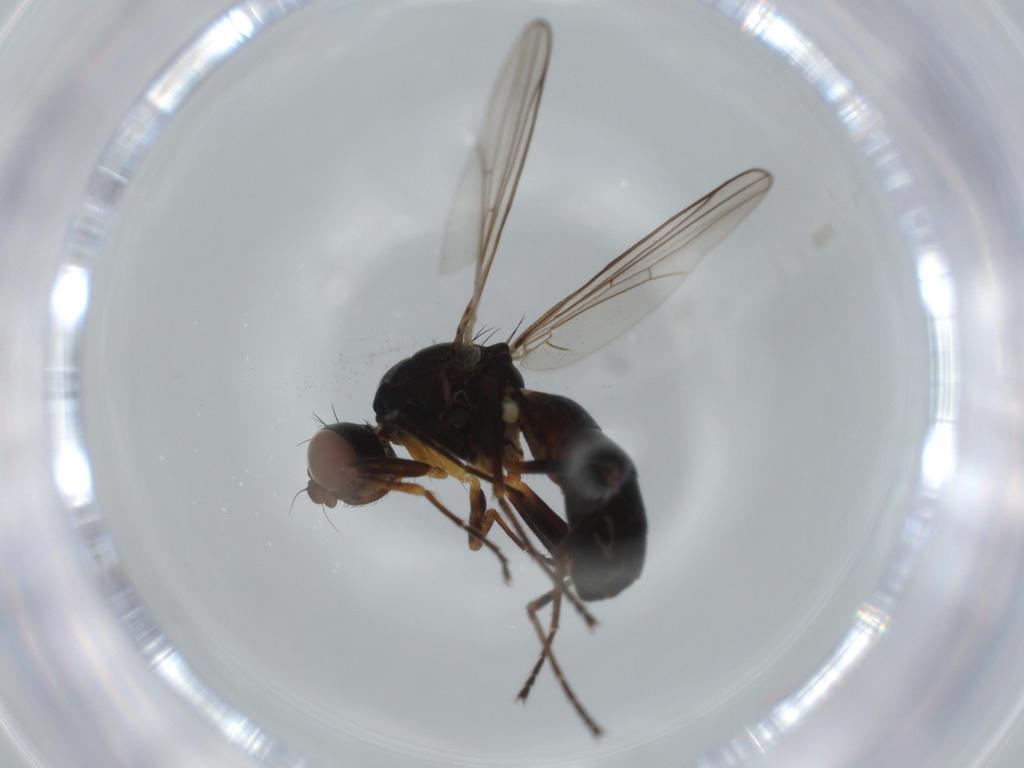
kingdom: Animalia
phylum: Arthropoda
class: Insecta
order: Diptera
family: Sepsidae
